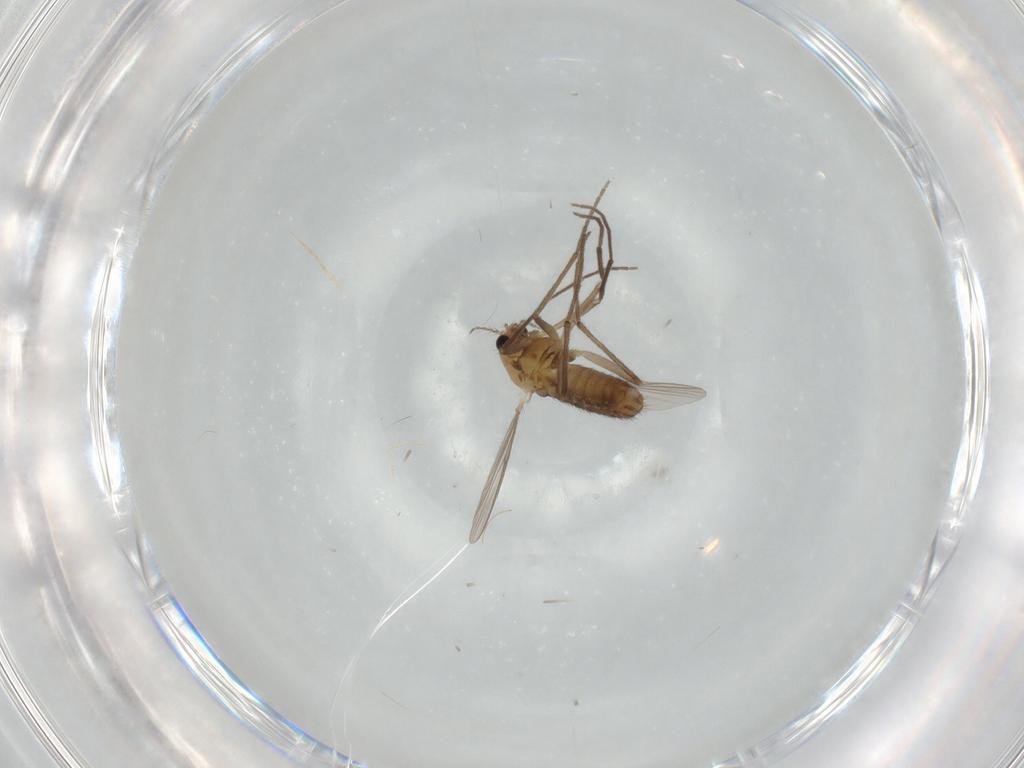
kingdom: Animalia
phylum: Arthropoda
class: Insecta
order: Diptera
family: Chironomidae
